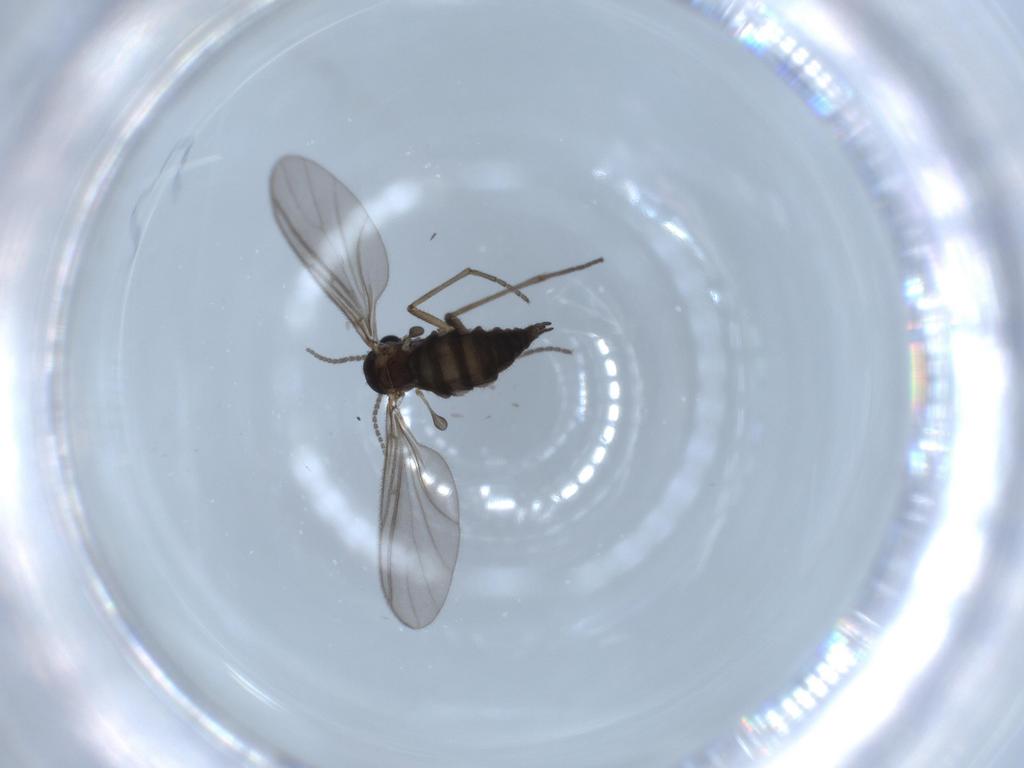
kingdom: Animalia
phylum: Arthropoda
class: Insecta
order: Diptera
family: Sciaridae
